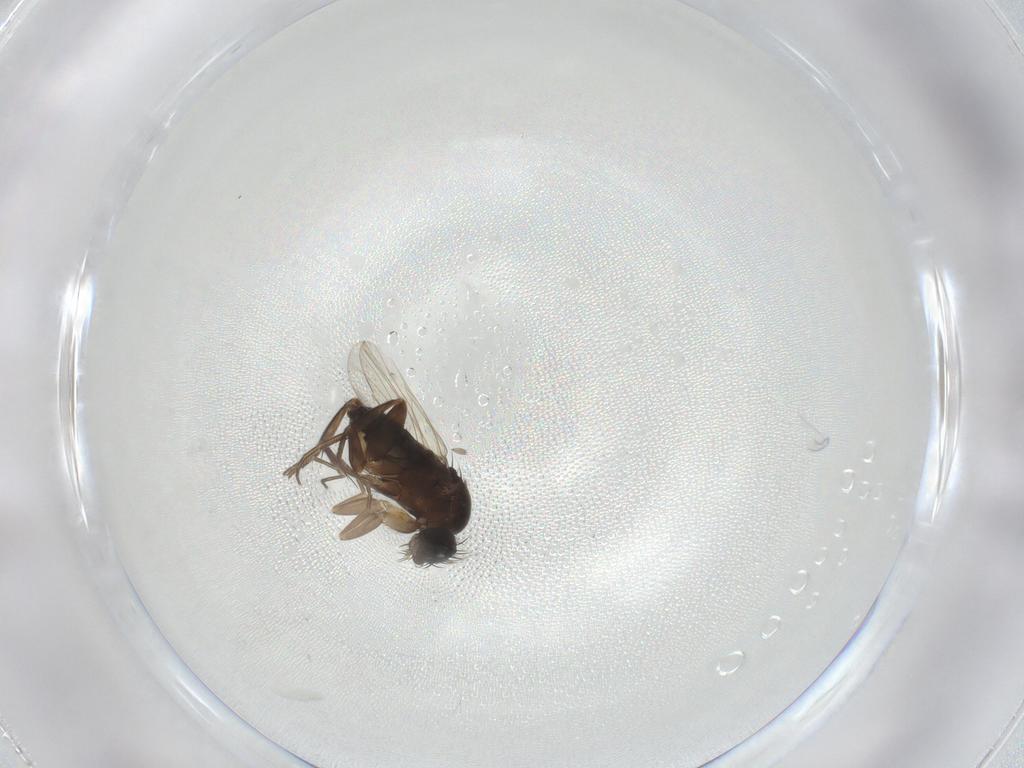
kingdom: Animalia
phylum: Arthropoda
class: Insecta
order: Diptera
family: Phoridae
